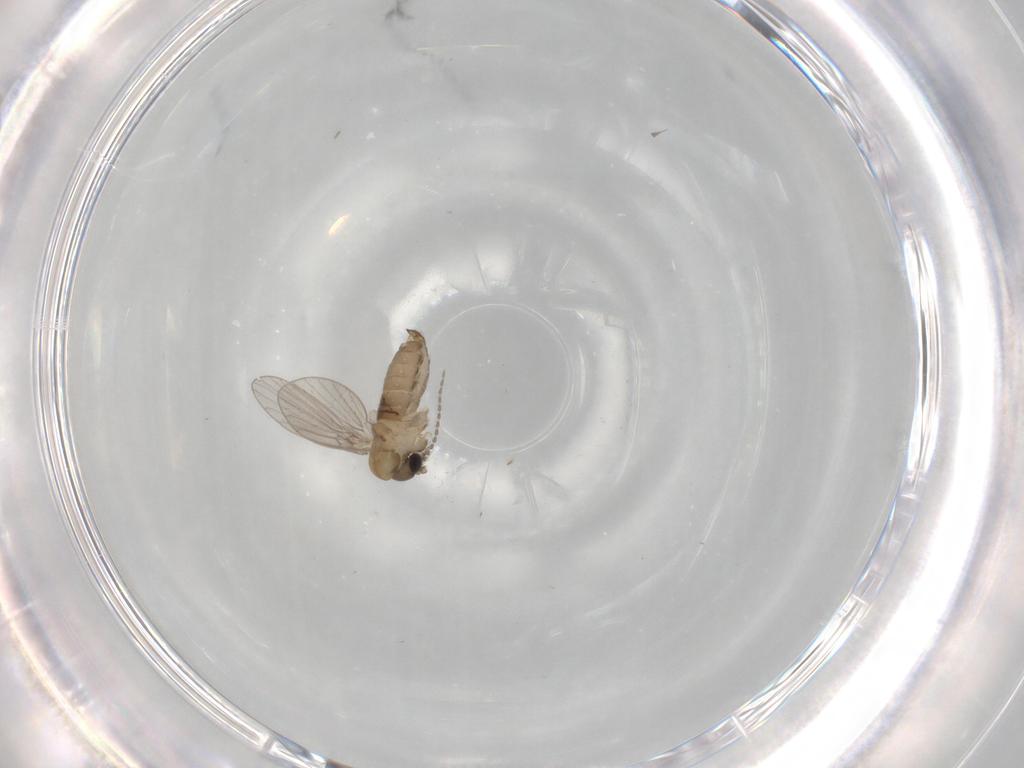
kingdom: Animalia
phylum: Arthropoda
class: Insecta
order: Diptera
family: Psychodidae
